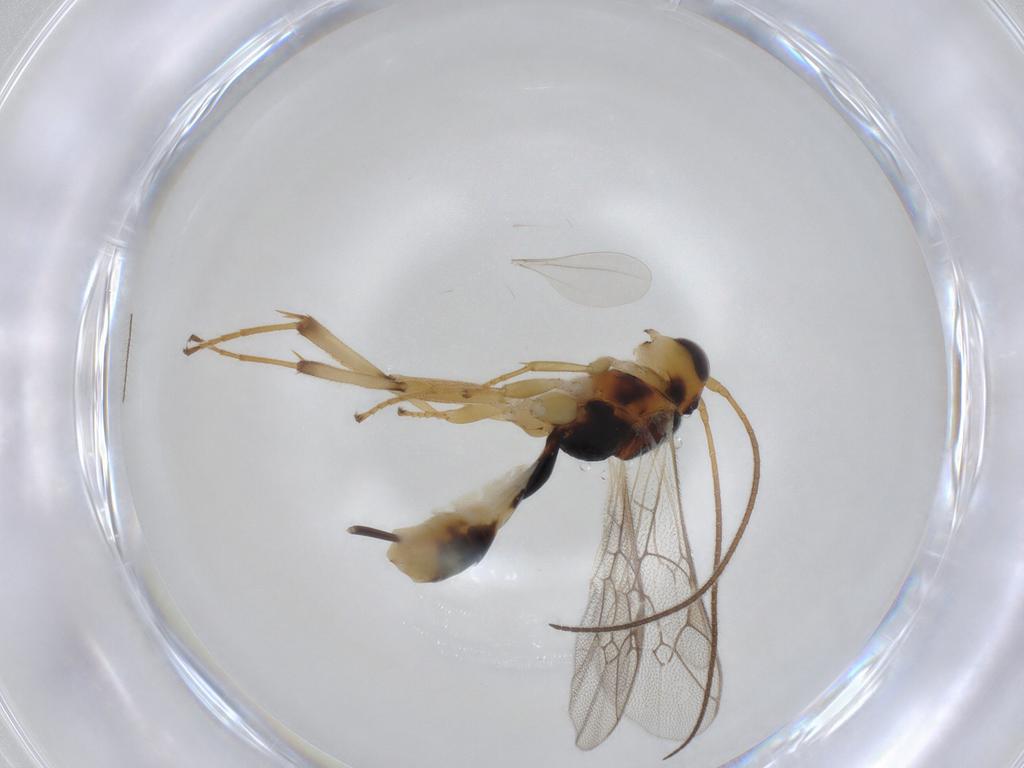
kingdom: Animalia
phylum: Arthropoda
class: Insecta
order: Hymenoptera
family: Ichneumonidae
